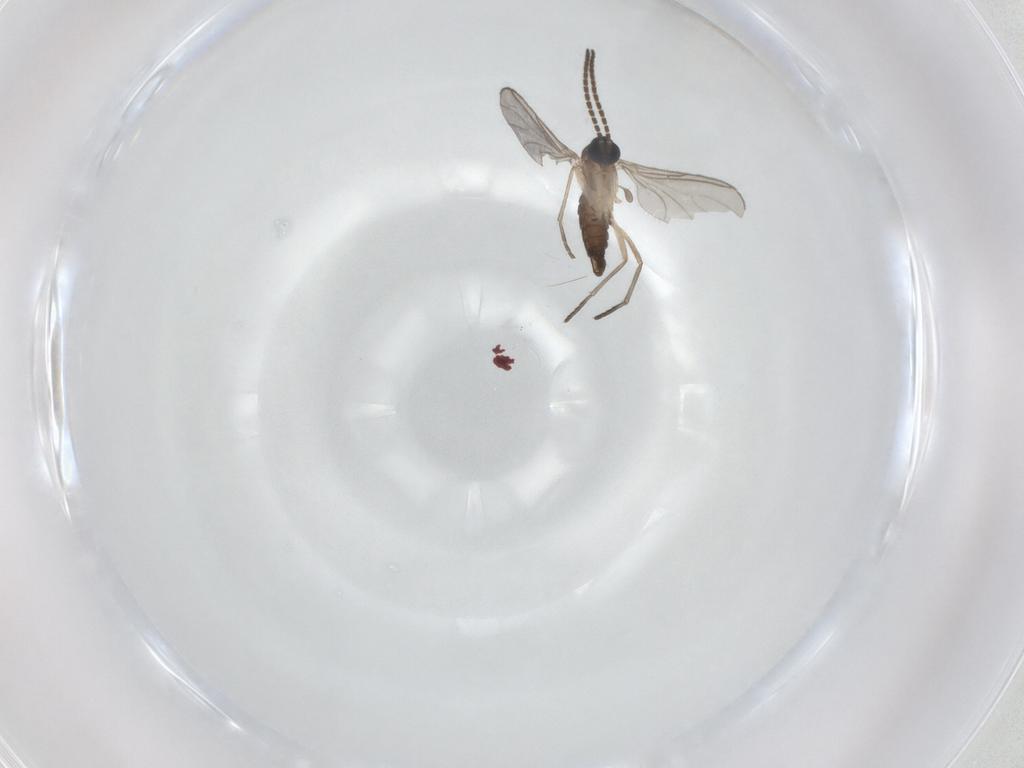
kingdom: Animalia
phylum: Arthropoda
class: Insecta
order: Diptera
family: Sciaridae
